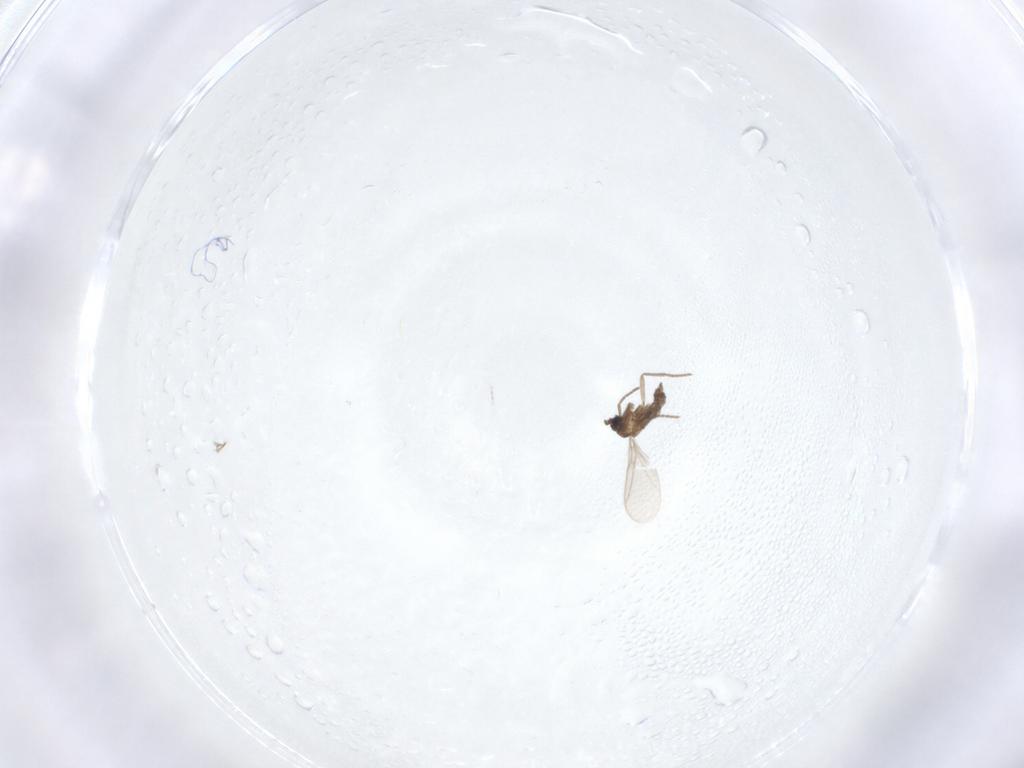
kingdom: Animalia
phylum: Arthropoda
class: Insecta
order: Diptera
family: Sciaridae
